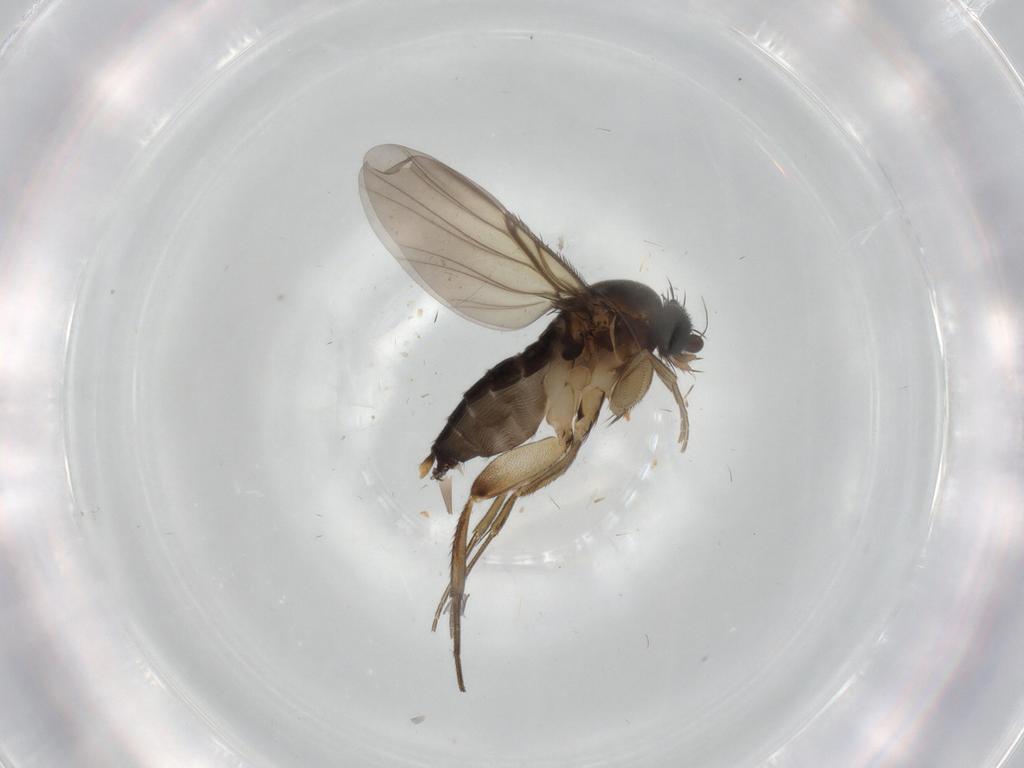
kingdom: Animalia
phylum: Arthropoda
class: Insecta
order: Diptera
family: Phoridae
